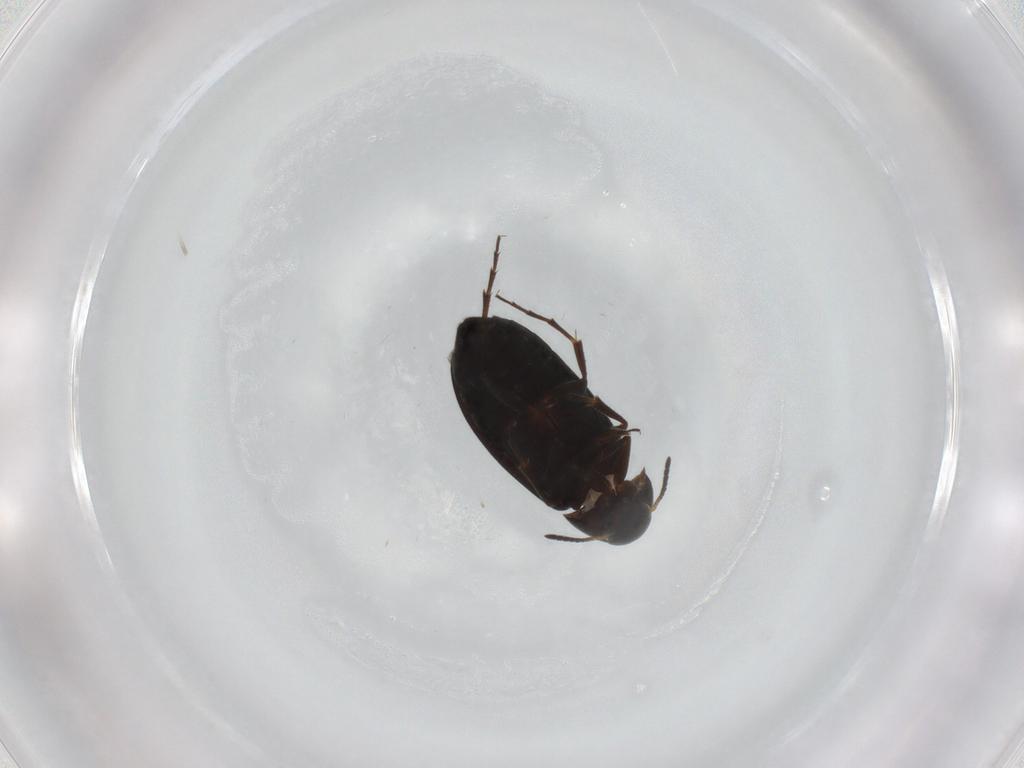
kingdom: Animalia
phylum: Arthropoda
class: Insecta
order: Coleoptera
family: Scraptiidae
